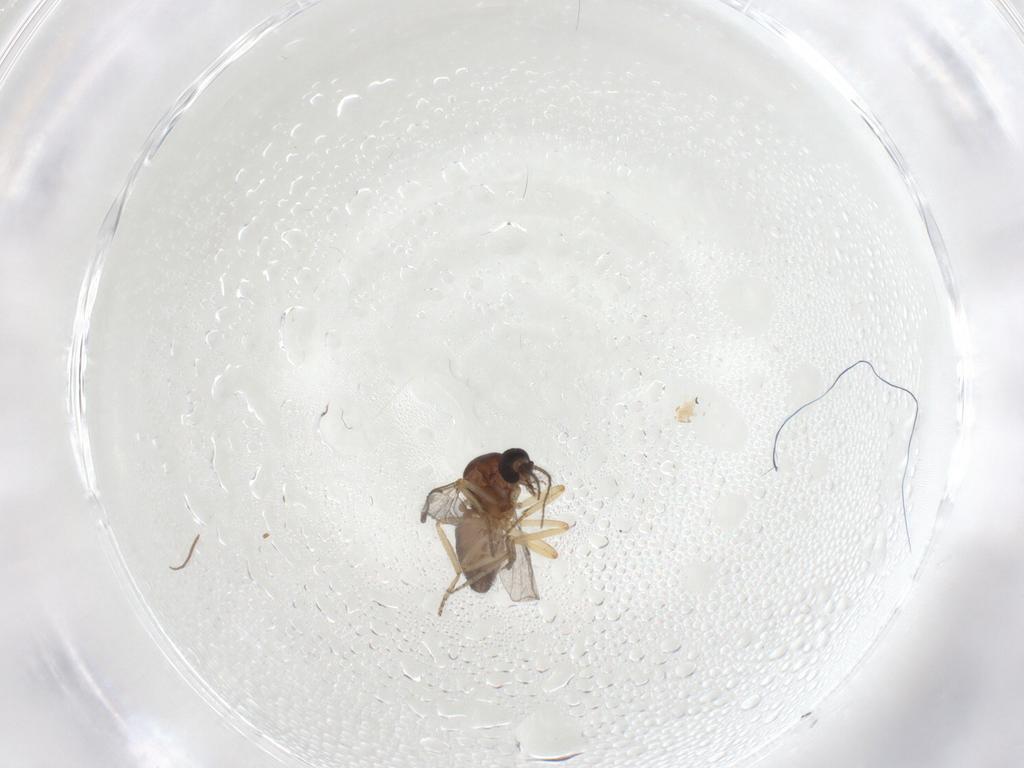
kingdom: Animalia
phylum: Arthropoda
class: Insecta
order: Diptera
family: Ceratopogonidae
